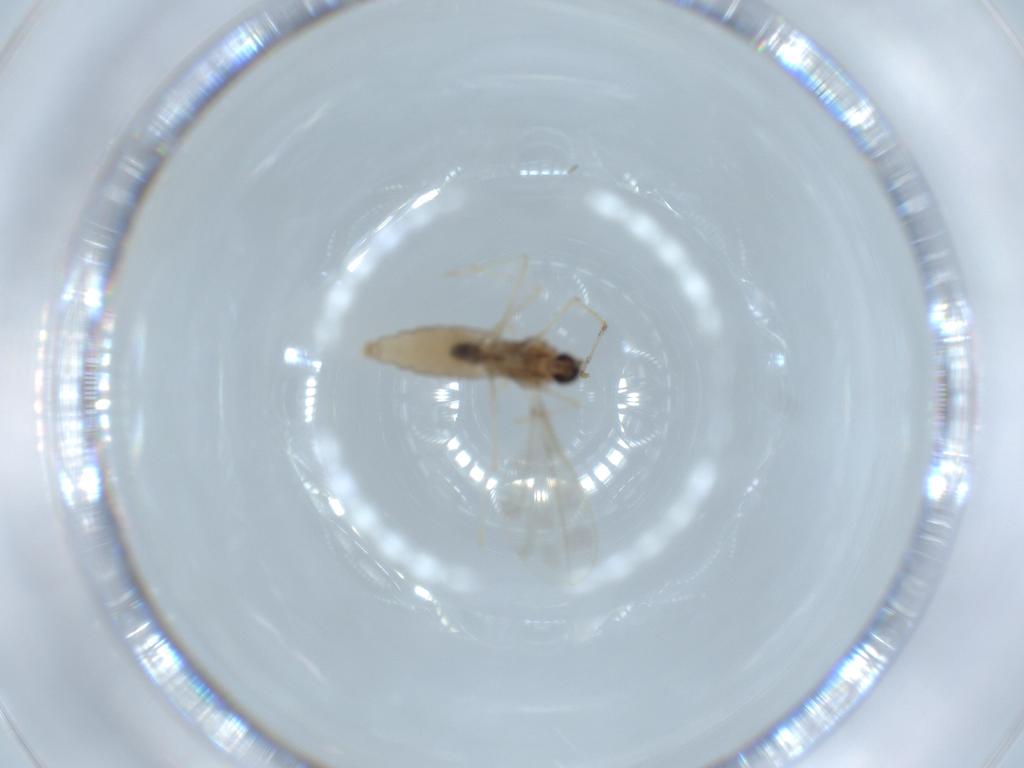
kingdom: Animalia
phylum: Arthropoda
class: Insecta
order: Diptera
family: Cecidomyiidae
